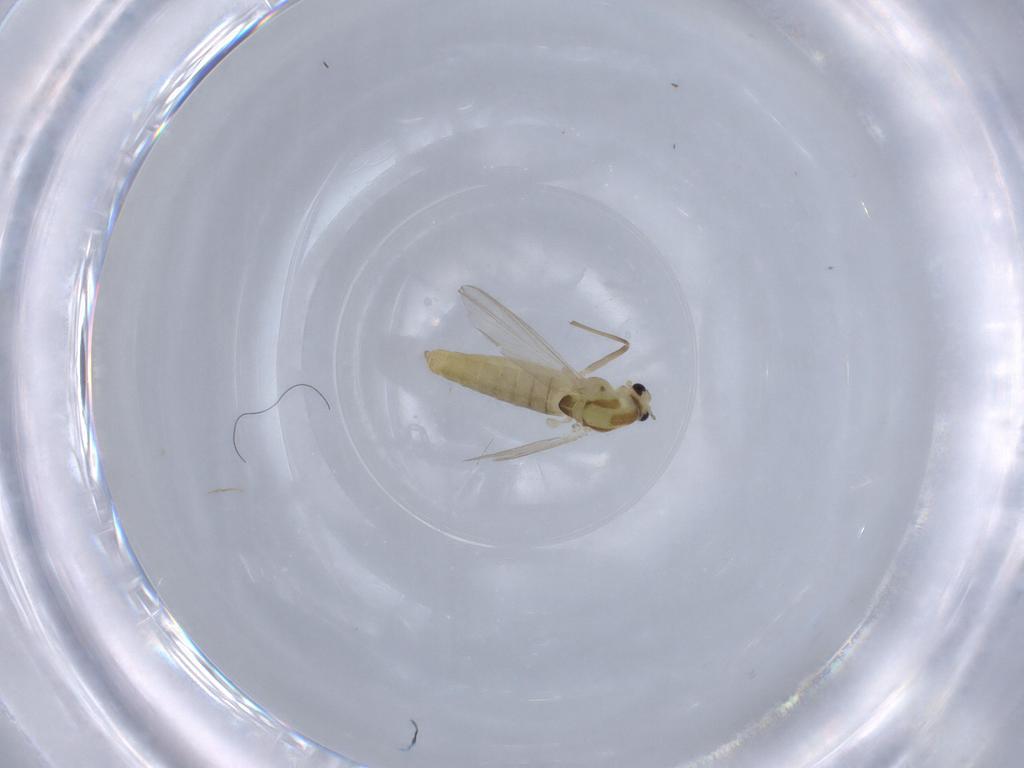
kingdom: Animalia
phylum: Arthropoda
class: Insecta
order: Diptera
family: Chironomidae
